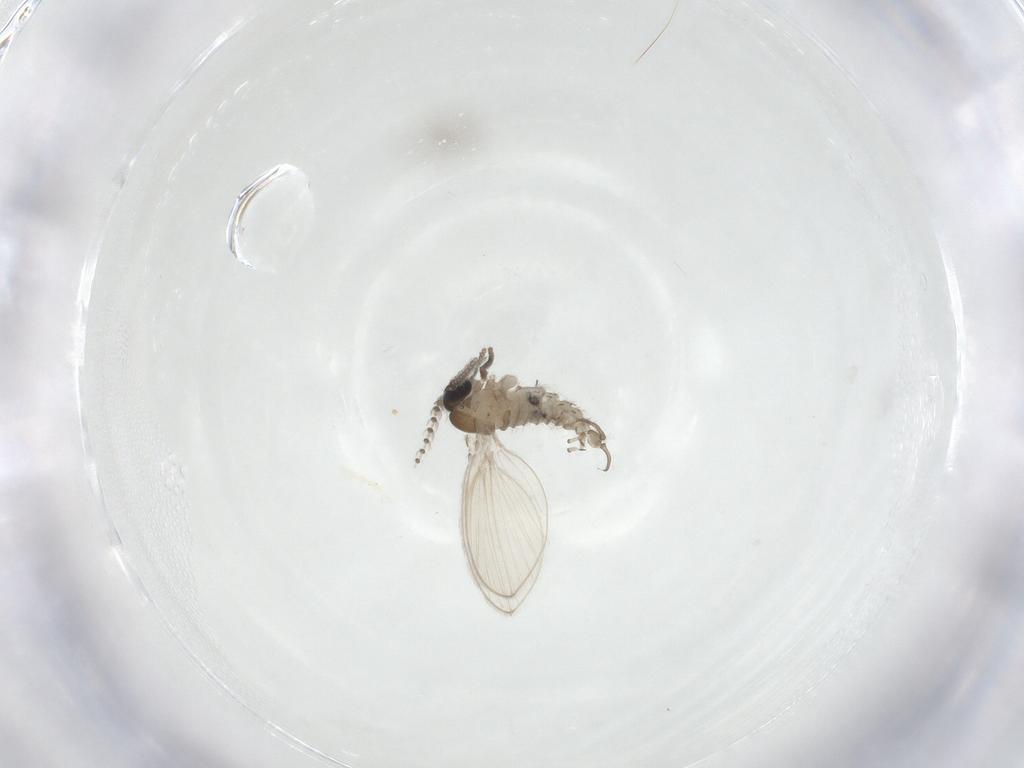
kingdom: Animalia
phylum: Arthropoda
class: Insecta
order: Diptera
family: Psychodidae
